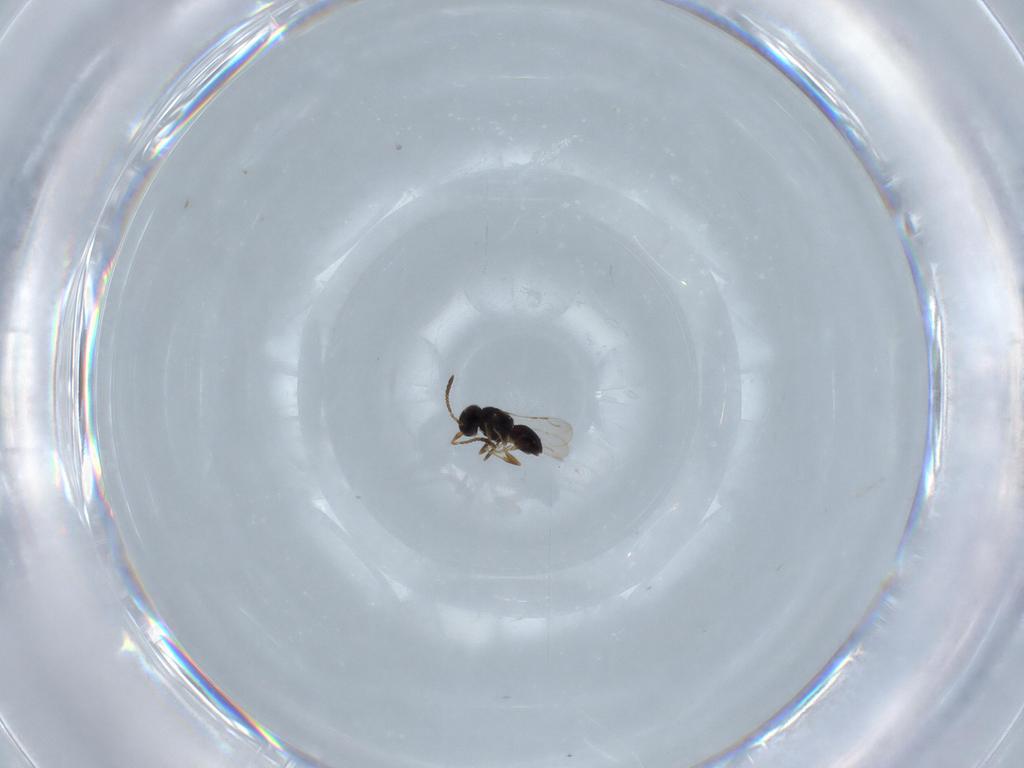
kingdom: Animalia
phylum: Arthropoda
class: Insecta
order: Hymenoptera
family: Ceraphronidae
